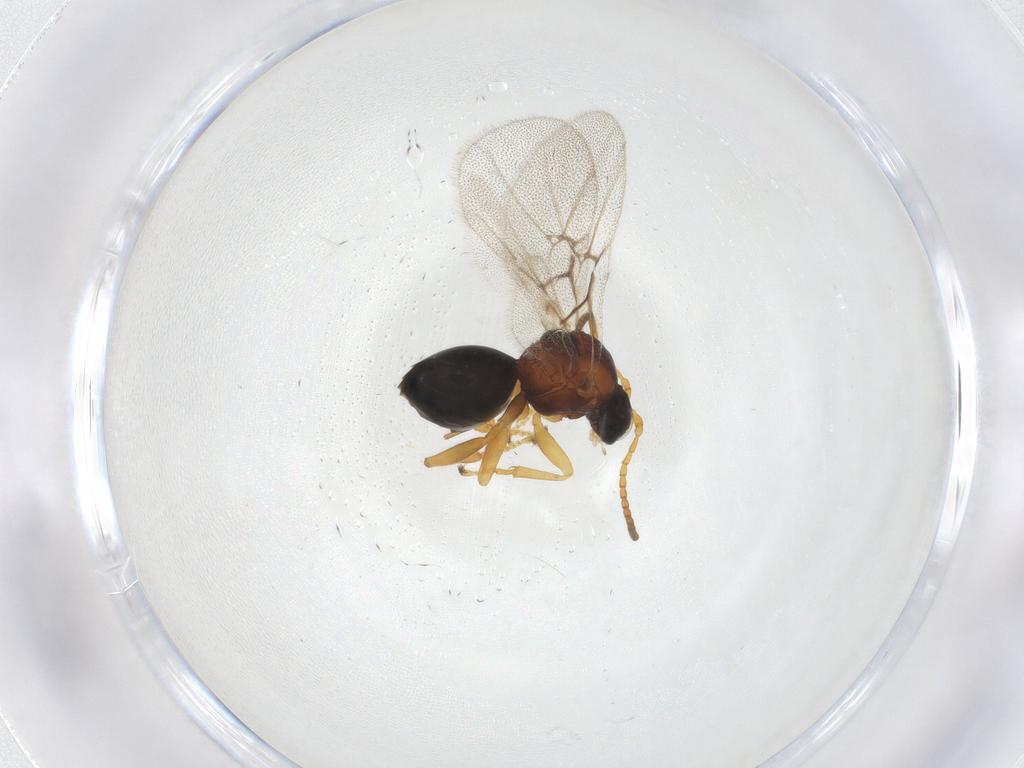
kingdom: Animalia
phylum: Arthropoda
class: Insecta
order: Hymenoptera
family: Cynipidae
